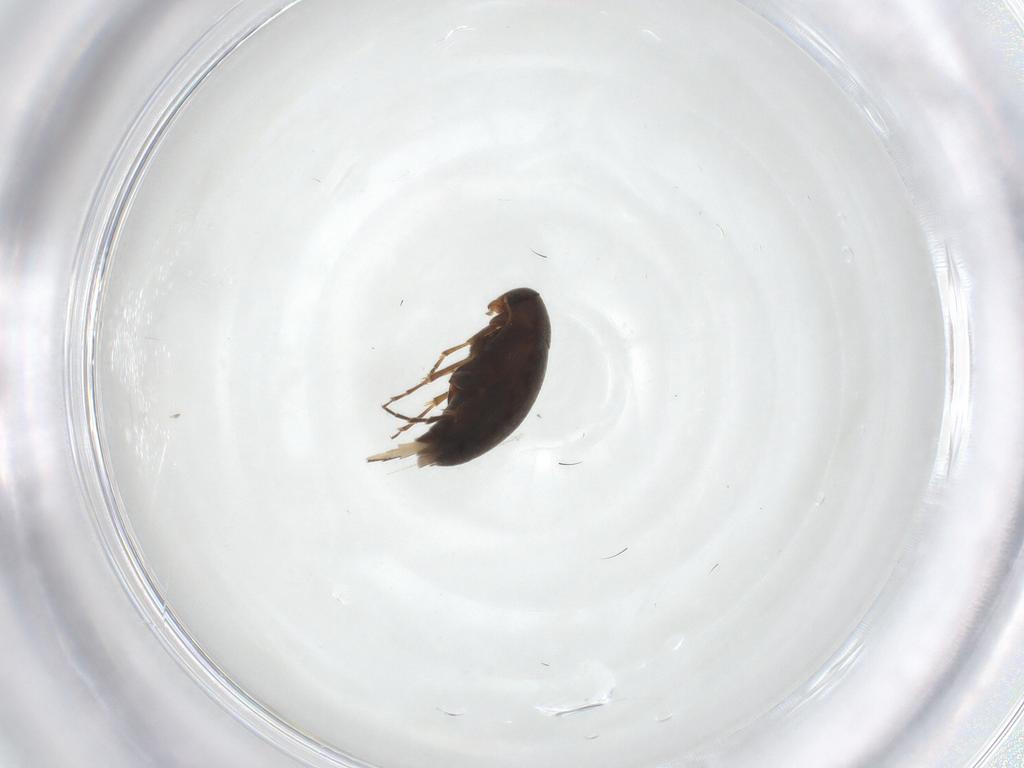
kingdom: Animalia
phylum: Arthropoda
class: Insecta
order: Coleoptera
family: Scraptiidae
